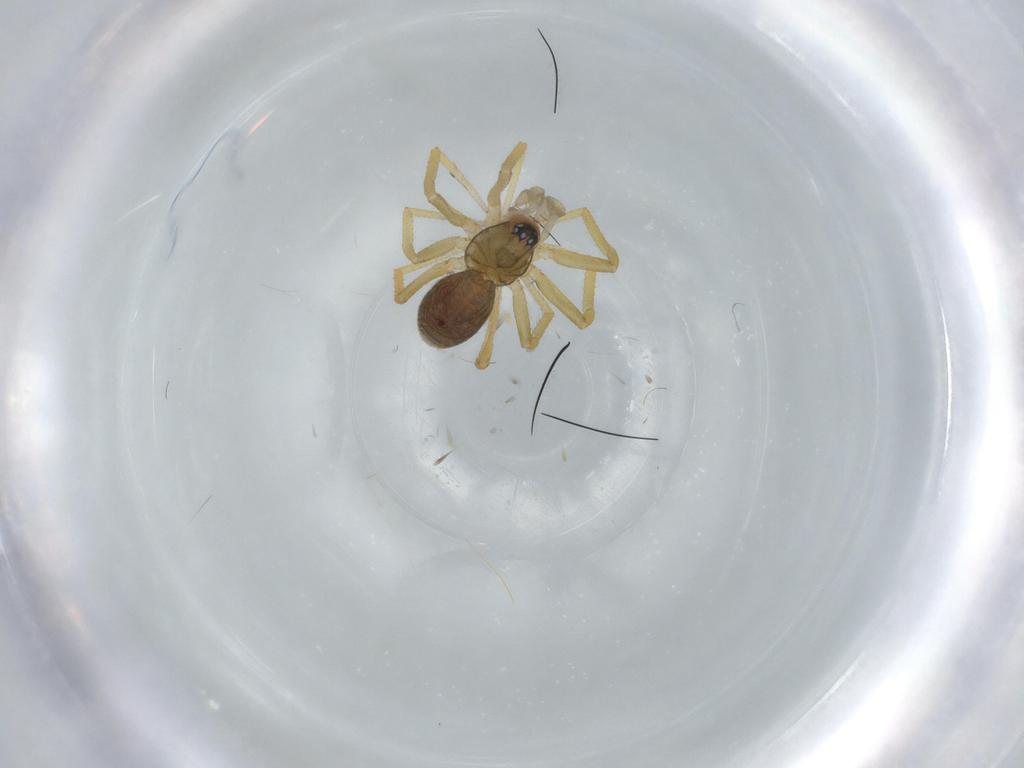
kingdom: Animalia
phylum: Arthropoda
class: Arachnida
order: Araneae
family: Linyphiidae
